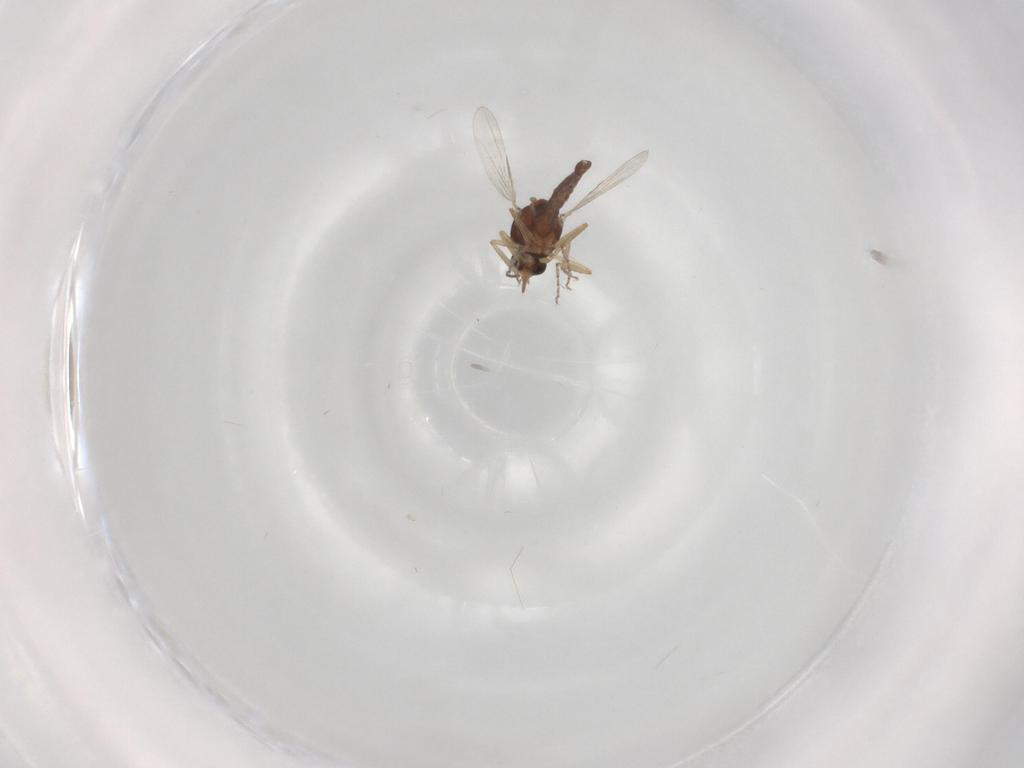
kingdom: Animalia
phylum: Arthropoda
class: Insecta
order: Diptera
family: Ceratopogonidae
